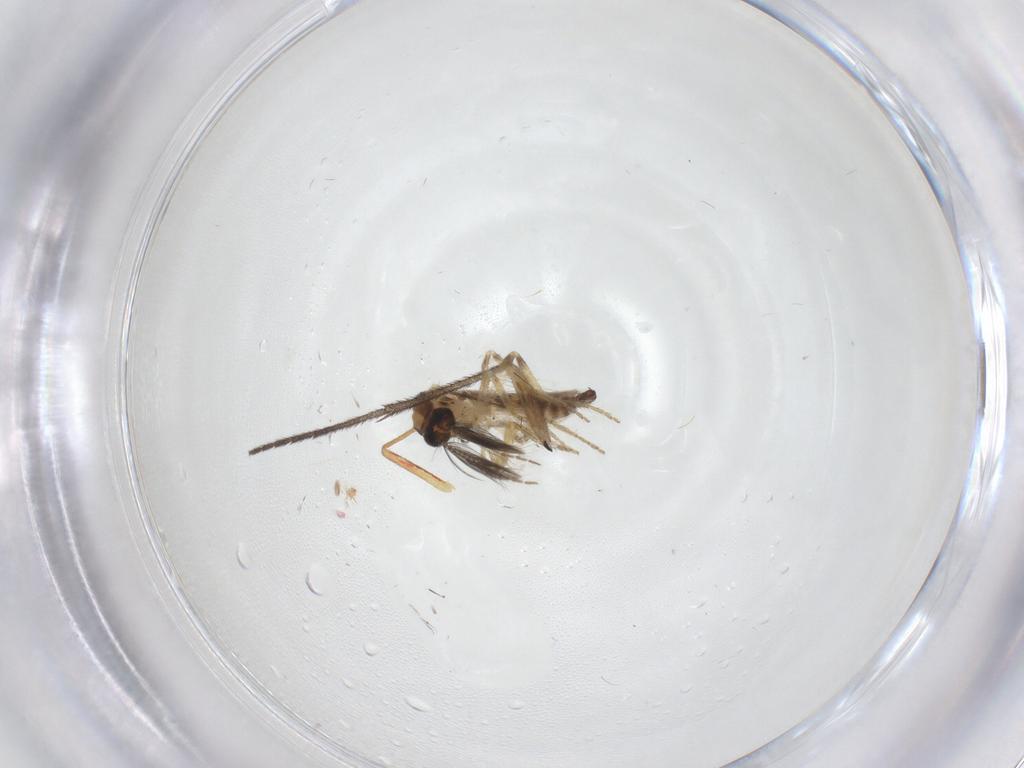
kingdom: Animalia
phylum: Arthropoda
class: Insecta
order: Diptera
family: Sciaridae
